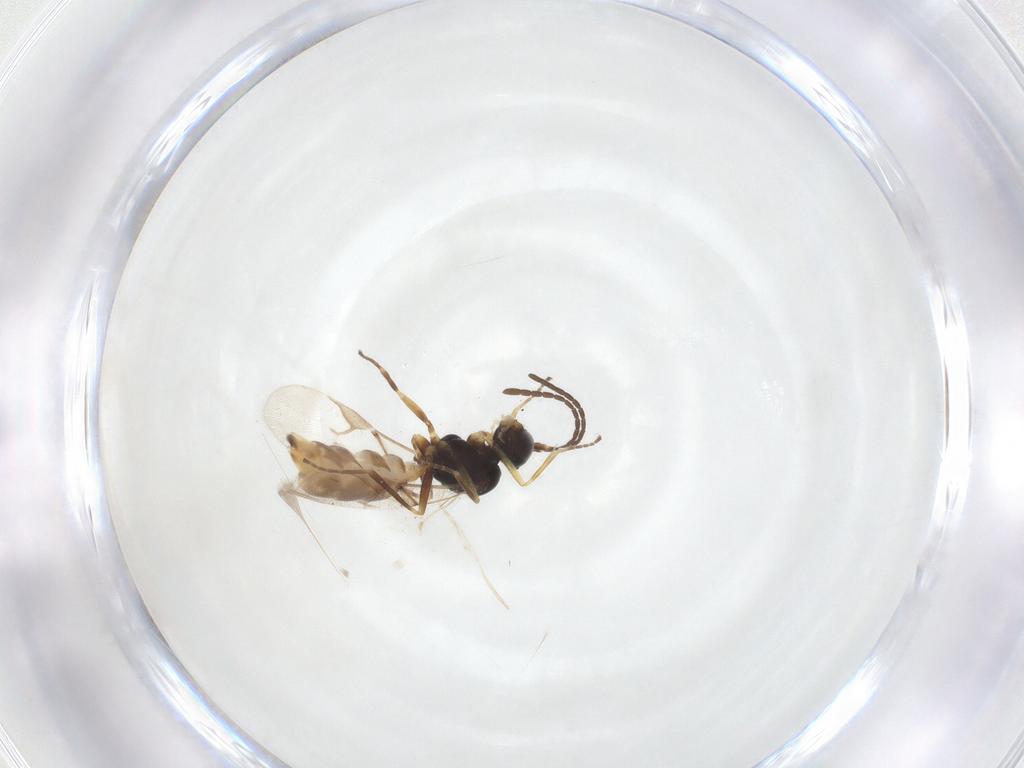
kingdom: Animalia
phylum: Arthropoda
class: Insecta
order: Hymenoptera
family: Braconidae
